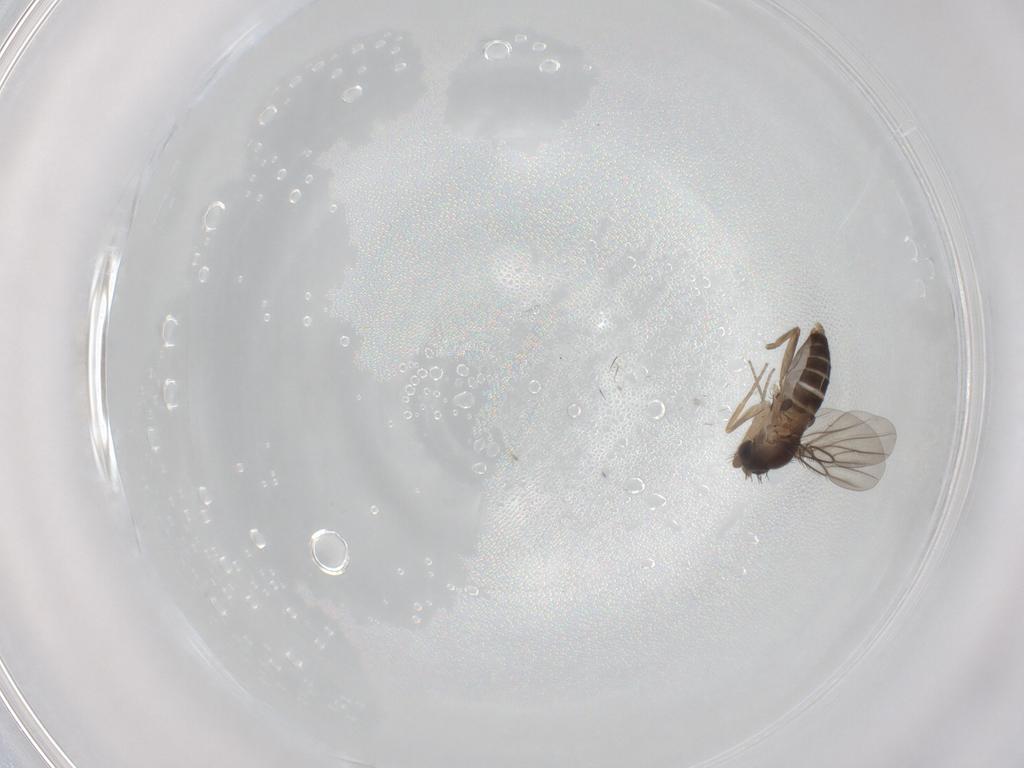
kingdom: Animalia
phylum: Arthropoda
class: Insecta
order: Diptera
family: Phoridae
